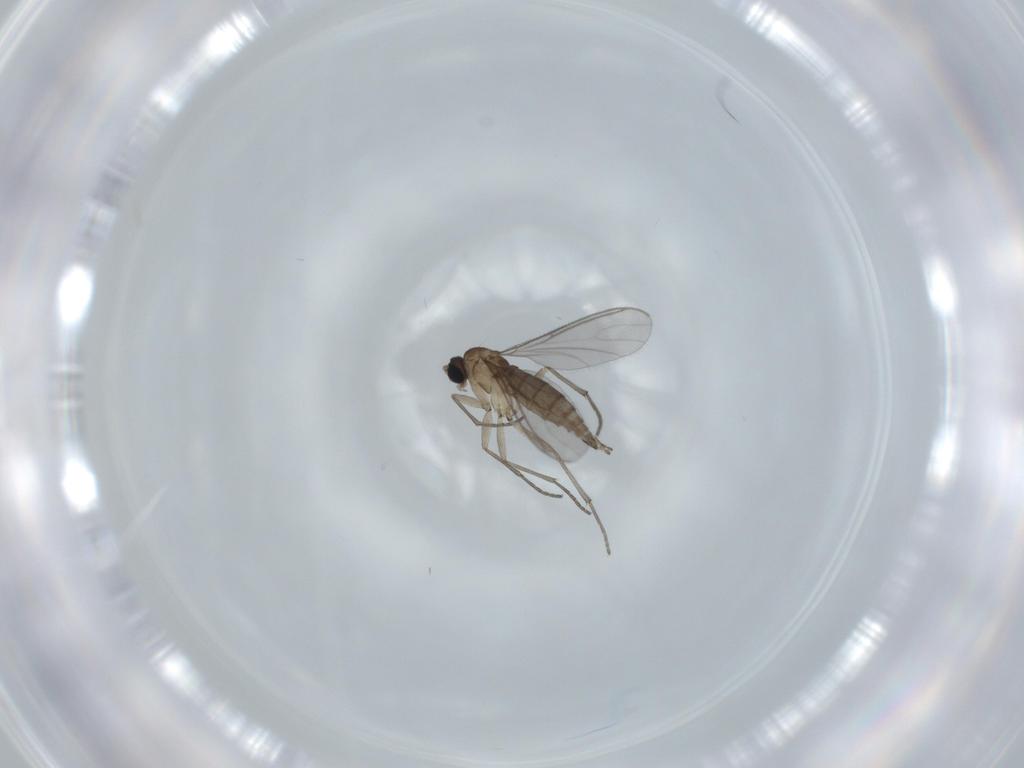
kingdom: Animalia
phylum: Arthropoda
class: Insecta
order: Diptera
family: Sciaridae
